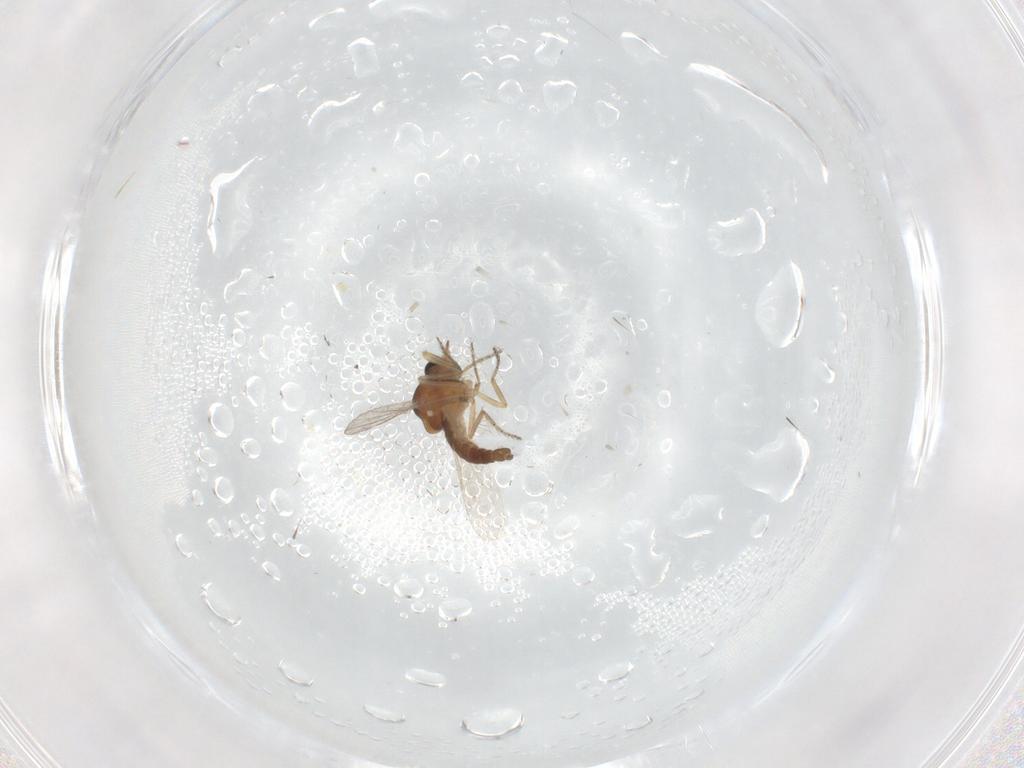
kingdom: Animalia
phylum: Arthropoda
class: Insecta
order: Diptera
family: Ceratopogonidae
